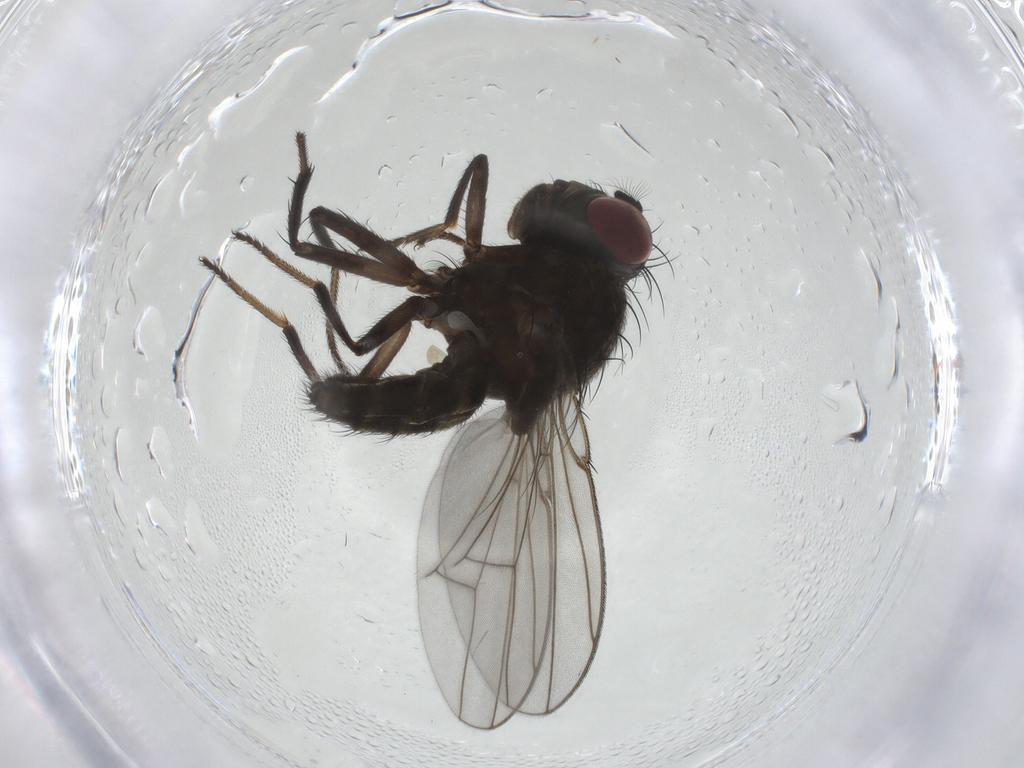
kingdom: Animalia
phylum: Arthropoda
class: Insecta
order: Diptera
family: Ephydridae
